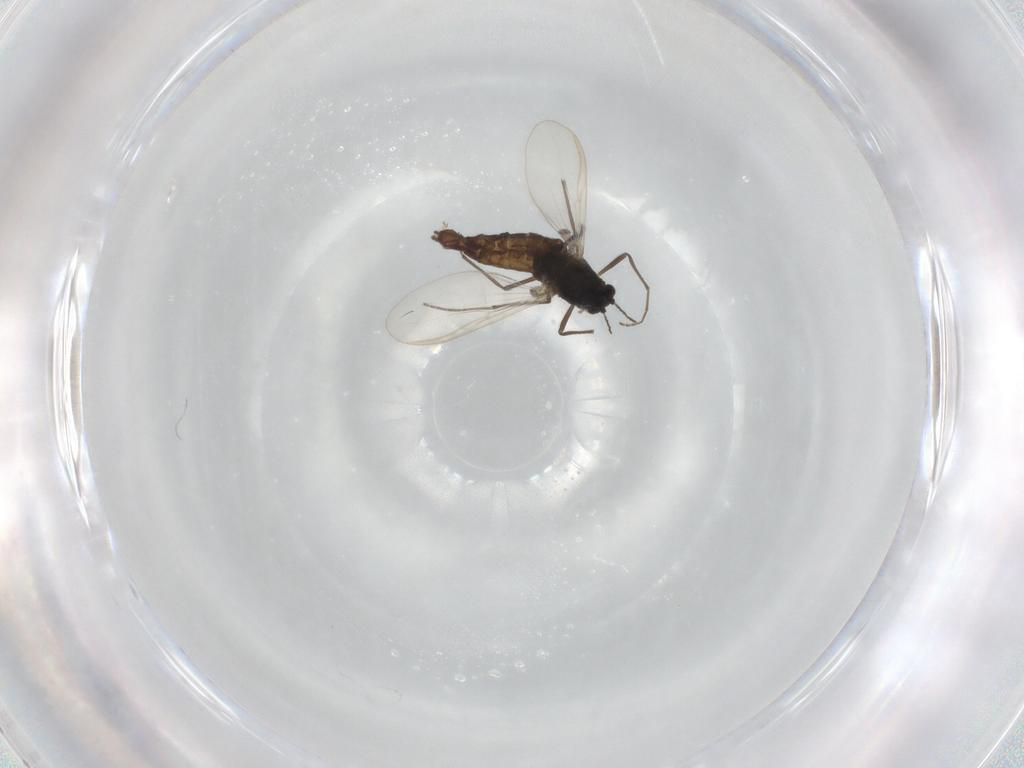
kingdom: Animalia
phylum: Arthropoda
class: Insecta
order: Diptera
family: Chironomidae
